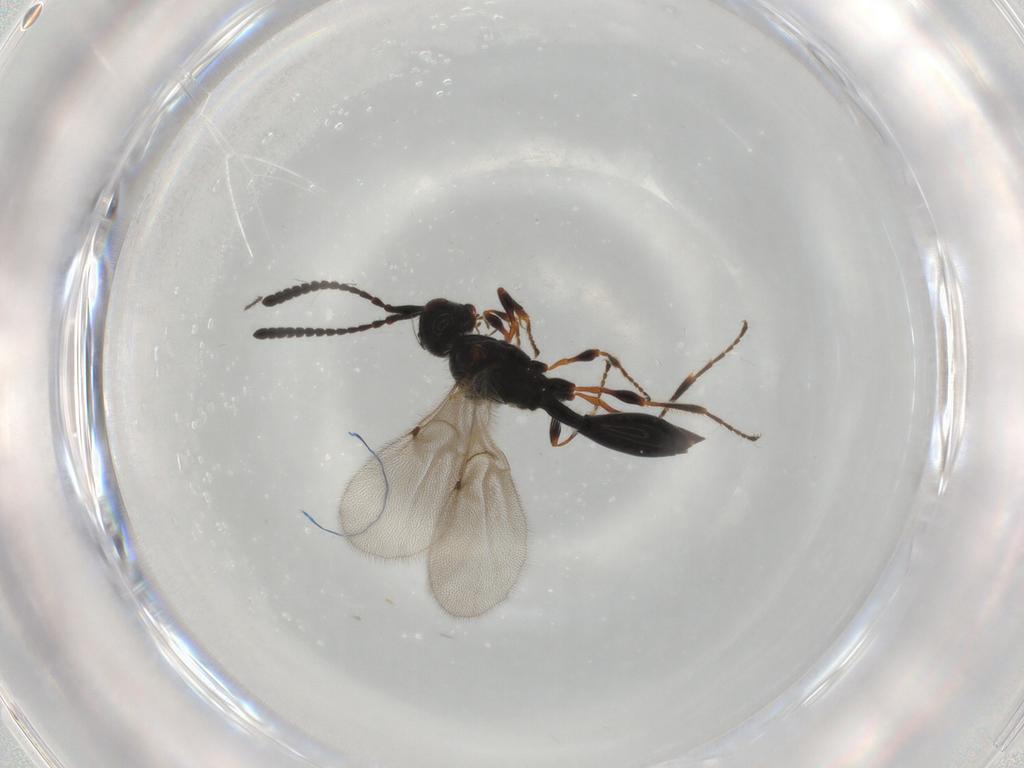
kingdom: Animalia
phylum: Arthropoda
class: Insecta
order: Hymenoptera
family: Diapriidae
